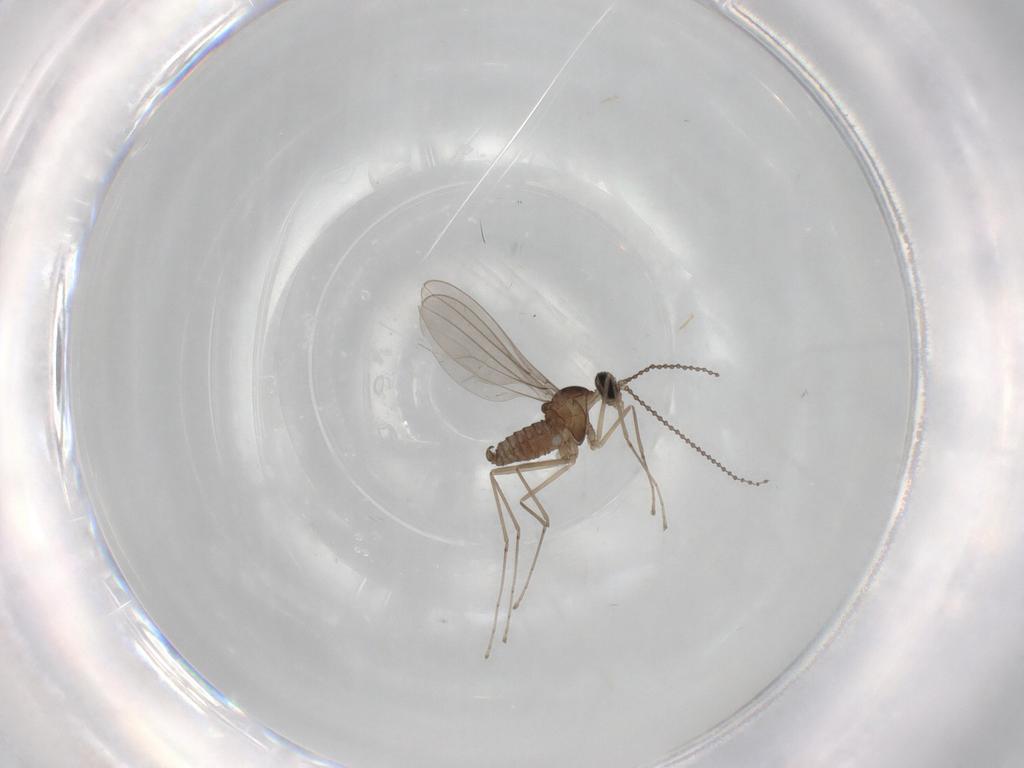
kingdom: Animalia
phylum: Arthropoda
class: Insecta
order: Diptera
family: Cecidomyiidae
